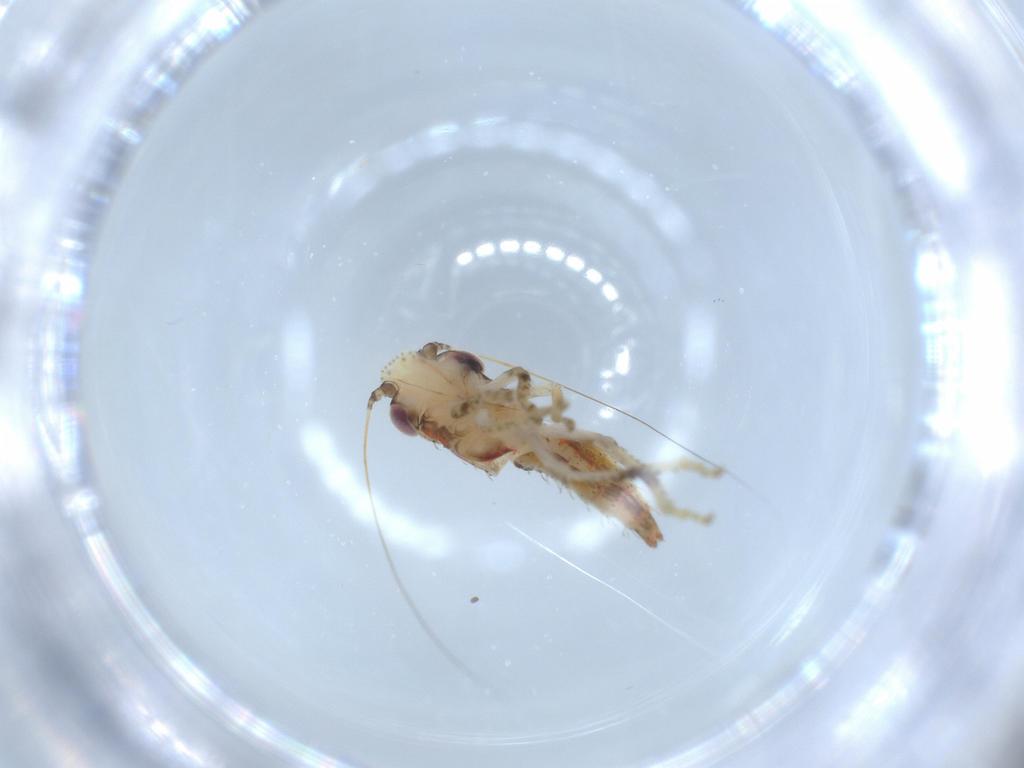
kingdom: Animalia
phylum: Arthropoda
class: Insecta
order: Hemiptera
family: Cicadellidae
